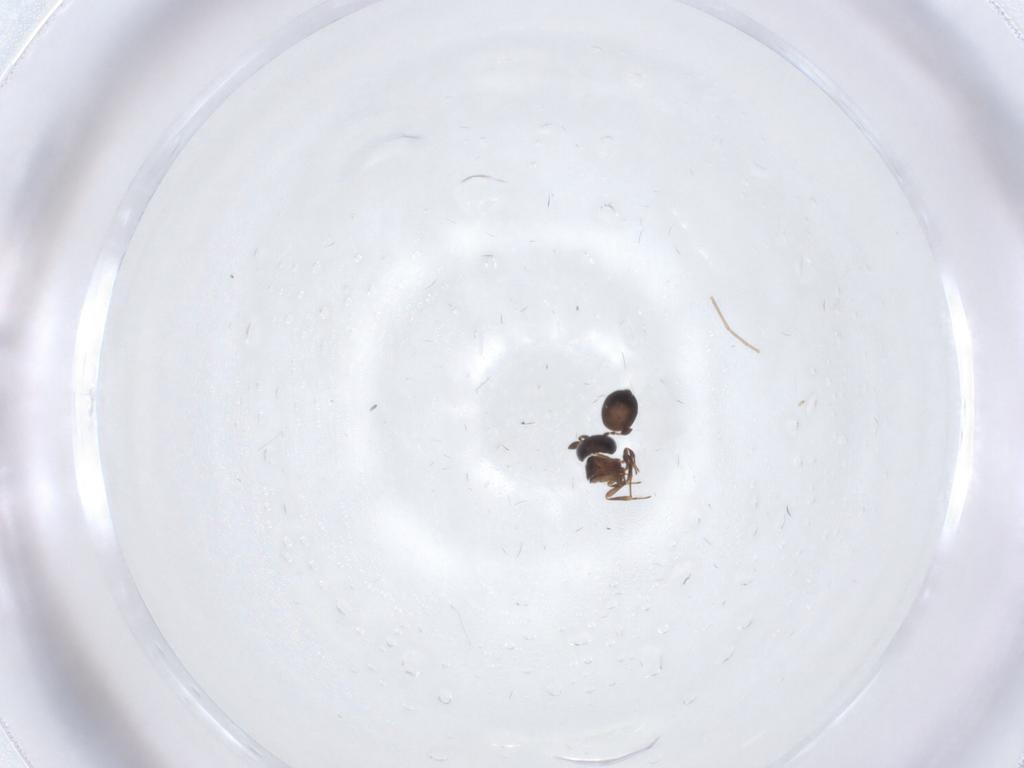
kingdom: Animalia
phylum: Arthropoda
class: Insecta
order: Hymenoptera
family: Scelionidae
